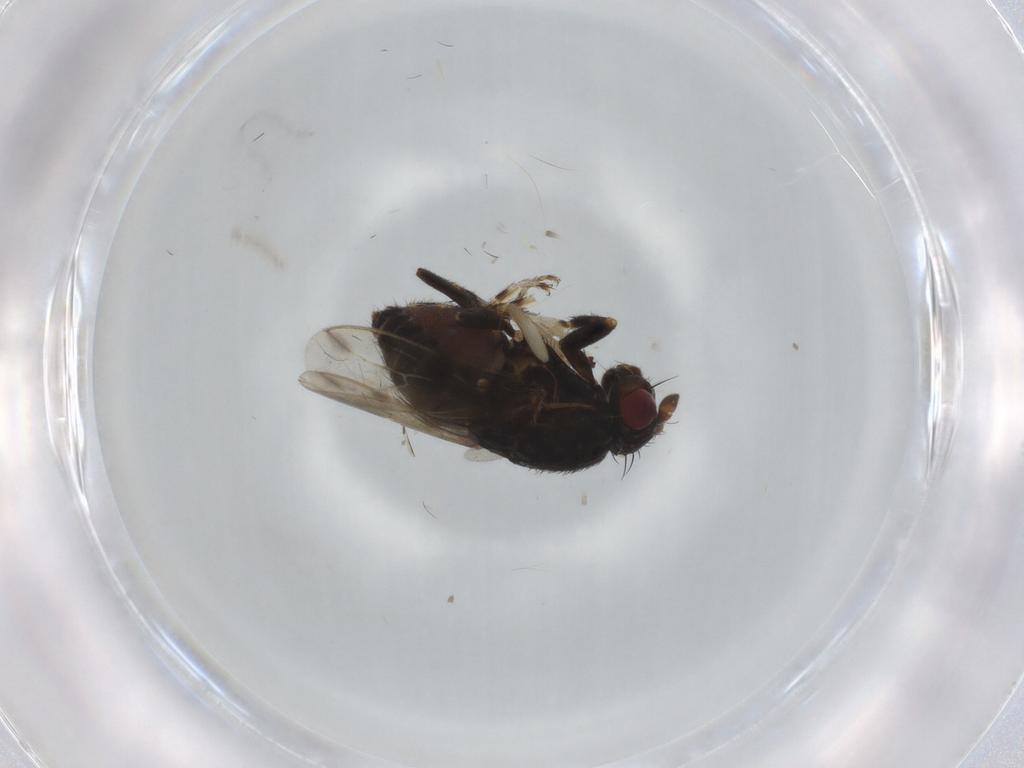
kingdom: Animalia
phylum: Arthropoda
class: Insecta
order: Diptera
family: Sphaeroceridae
